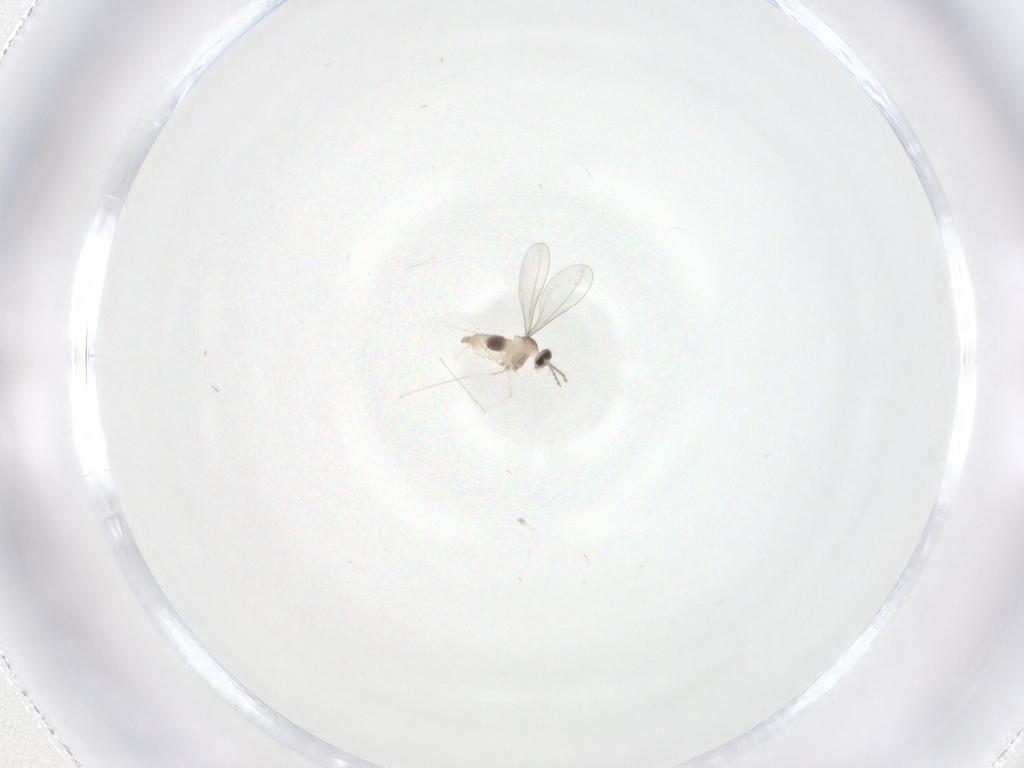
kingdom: Animalia
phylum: Arthropoda
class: Insecta
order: Diptera
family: Cecidomyiidae
